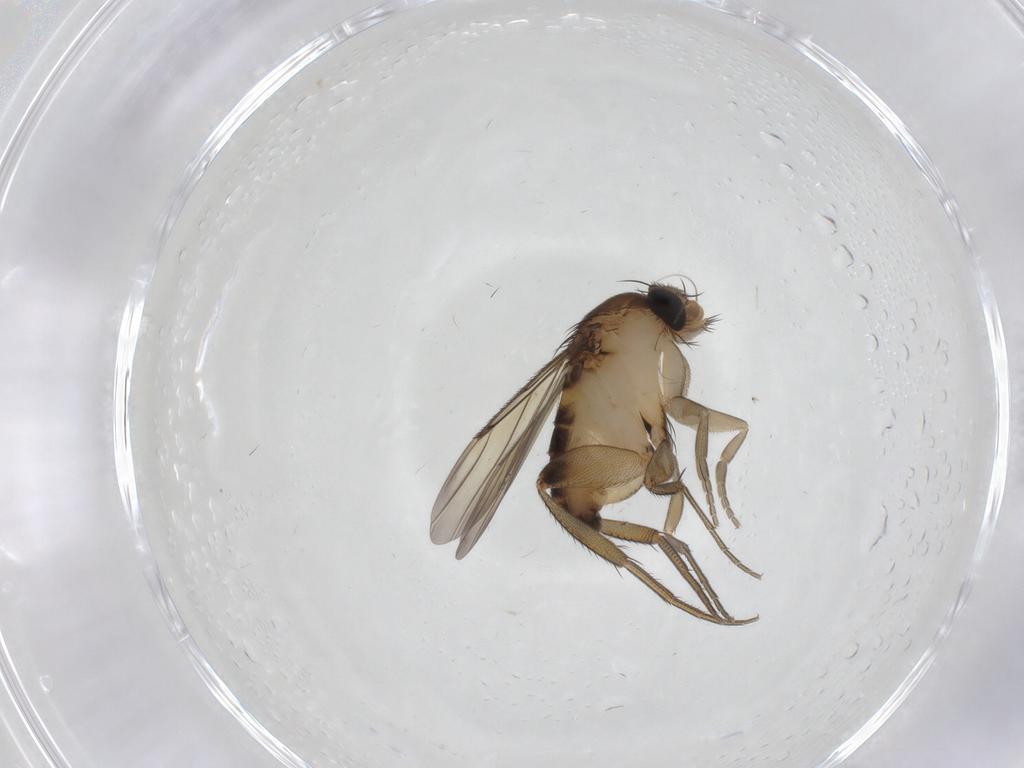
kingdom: Animalia
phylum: Arthropoda
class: Insecta
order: Diptera
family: Phoridae
